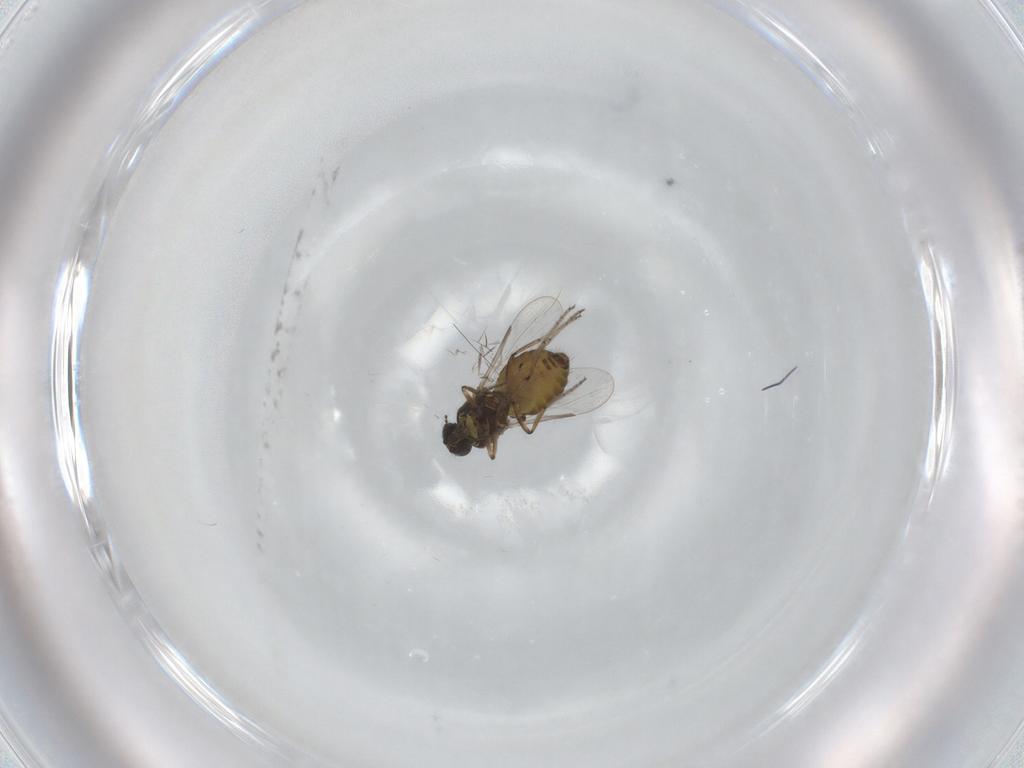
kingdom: Animalia
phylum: Arthropoda
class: Insecta
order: Diptera
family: Ceratopogonidae
